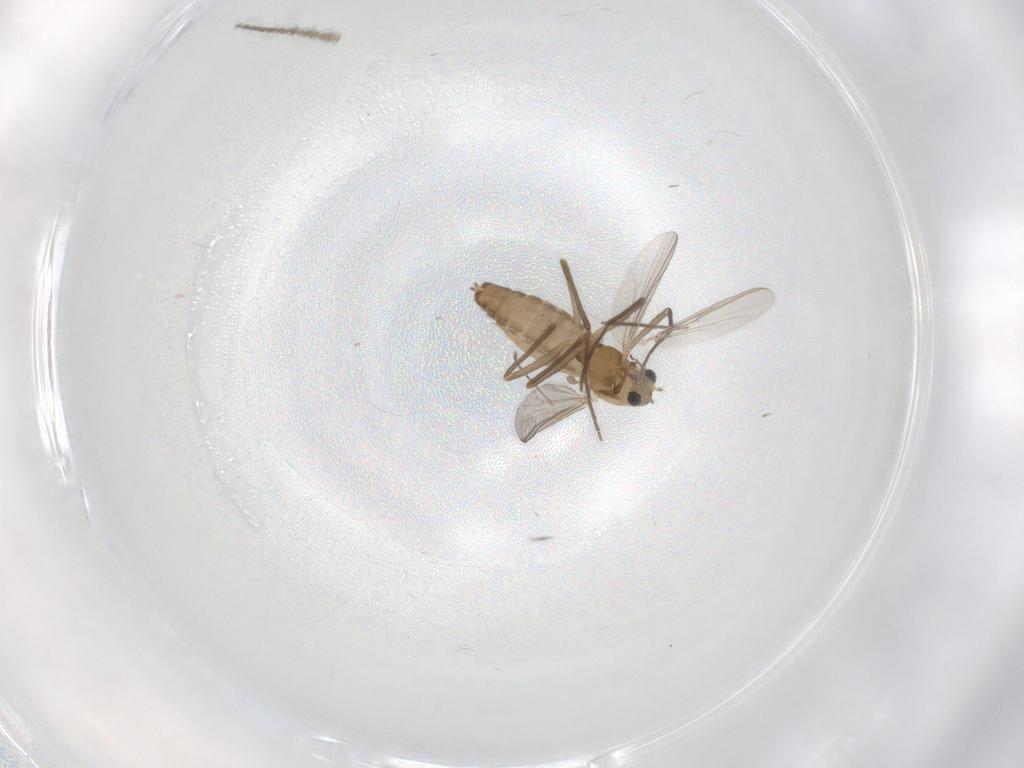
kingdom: Animalia
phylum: Arthropoda
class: Insecta
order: Diptera
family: Chironomidae
